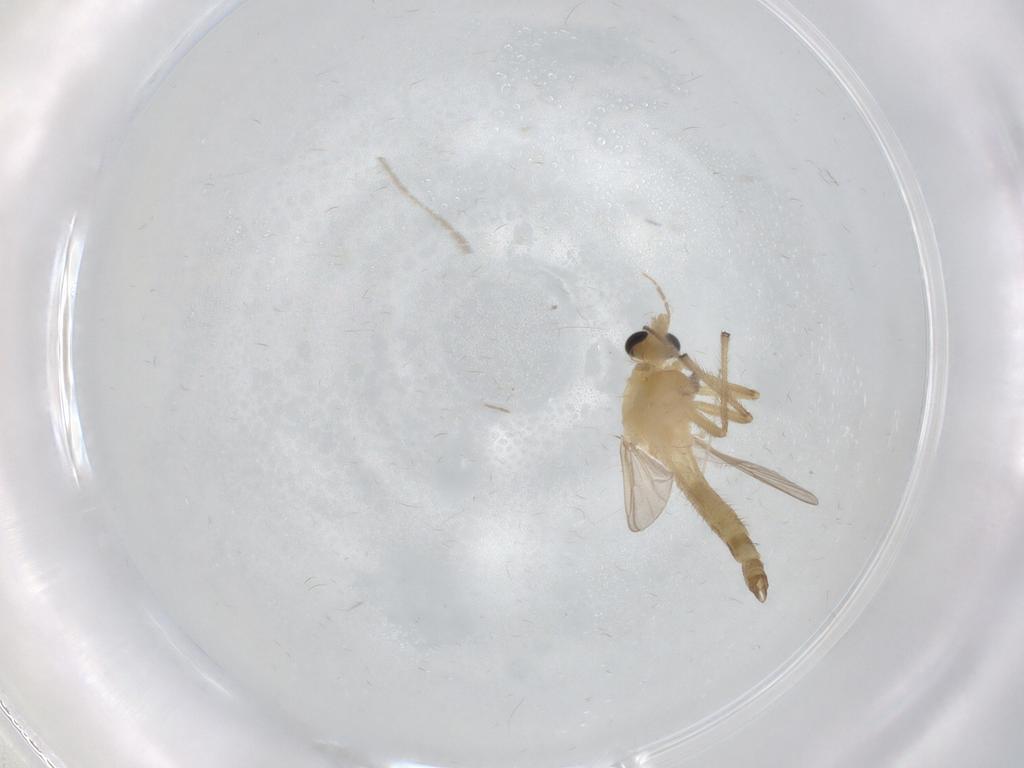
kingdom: Animalia
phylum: Arthropoda
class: Insecta
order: Diptera
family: Chironomidae
